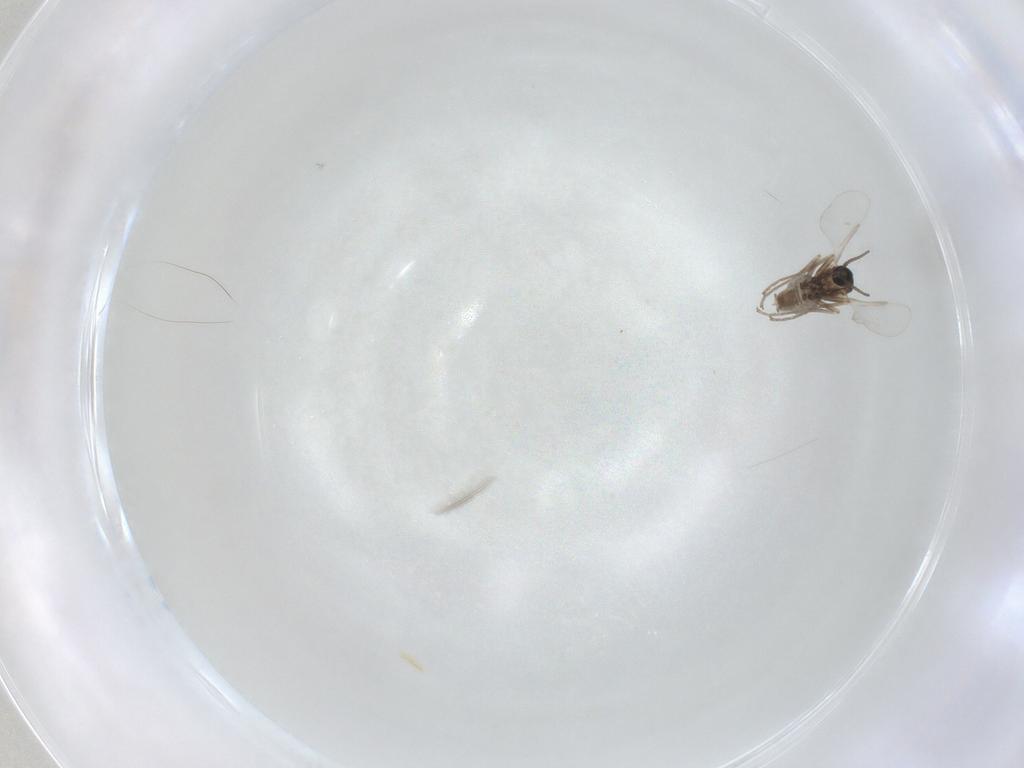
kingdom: Animalia
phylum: Arthropoda
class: Insecta
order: Diptera
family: Cecidomyiidae
